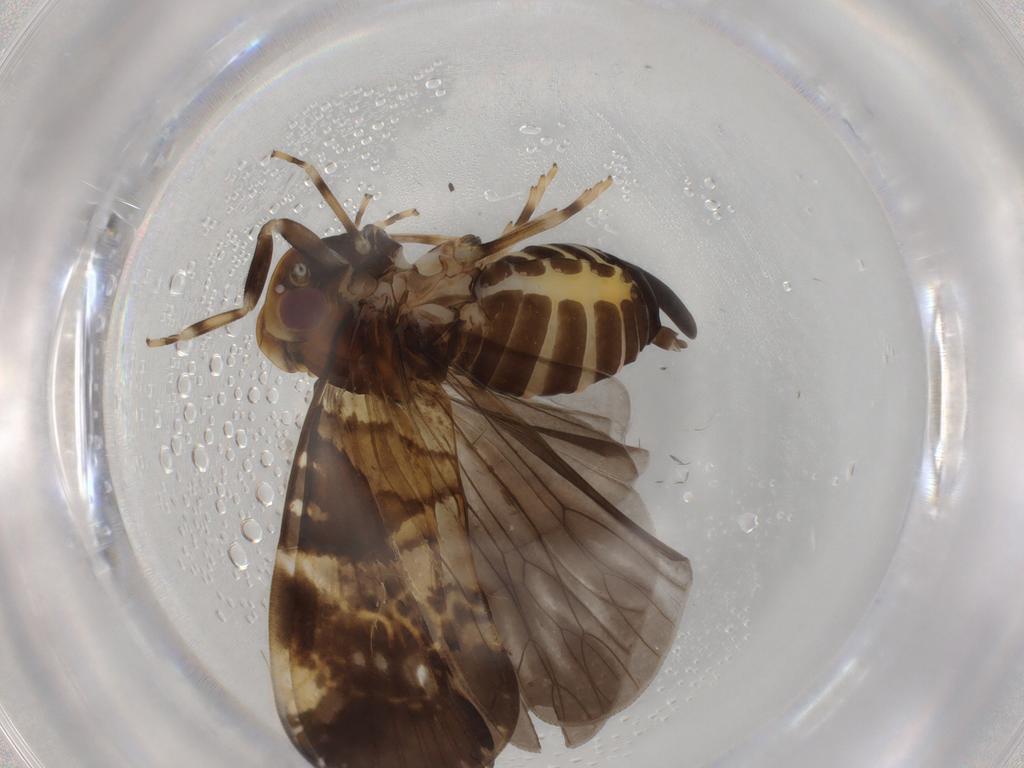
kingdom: Animalia
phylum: Arthropoda
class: Insecta
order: Hemiptera
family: Cixiidae
